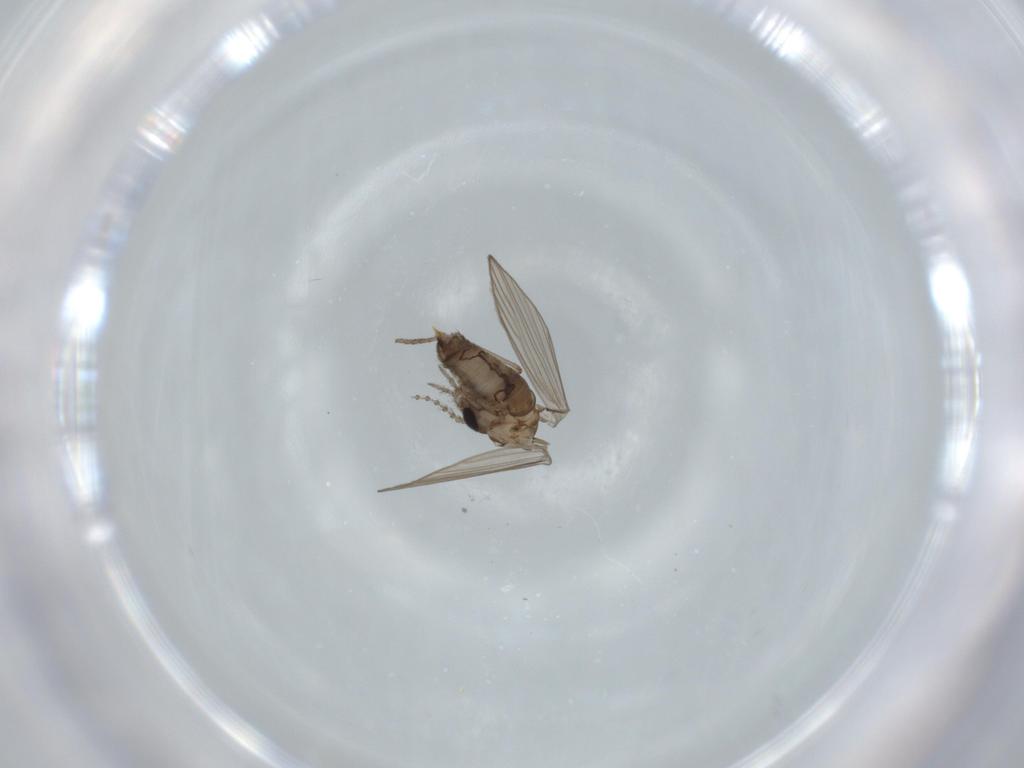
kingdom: Animalia
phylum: Arthropoda
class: Insecta
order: Diptera
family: Psychodidae
